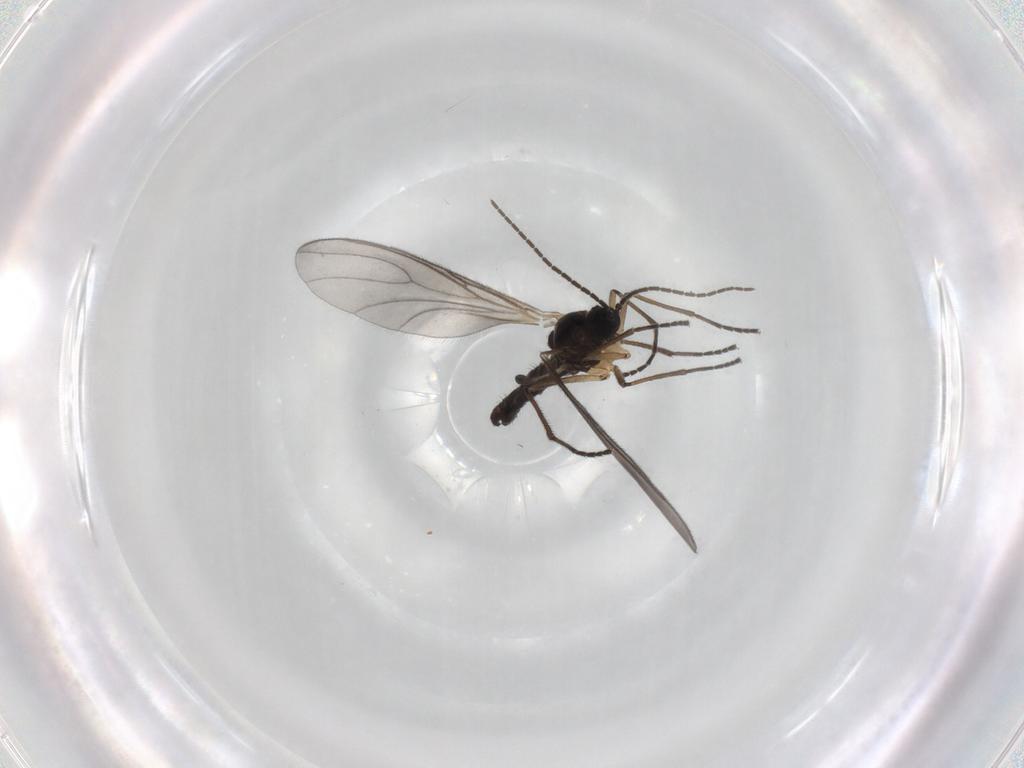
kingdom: Animalia
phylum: Arthropoda
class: Insecta
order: Diptera
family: Sciaridae
